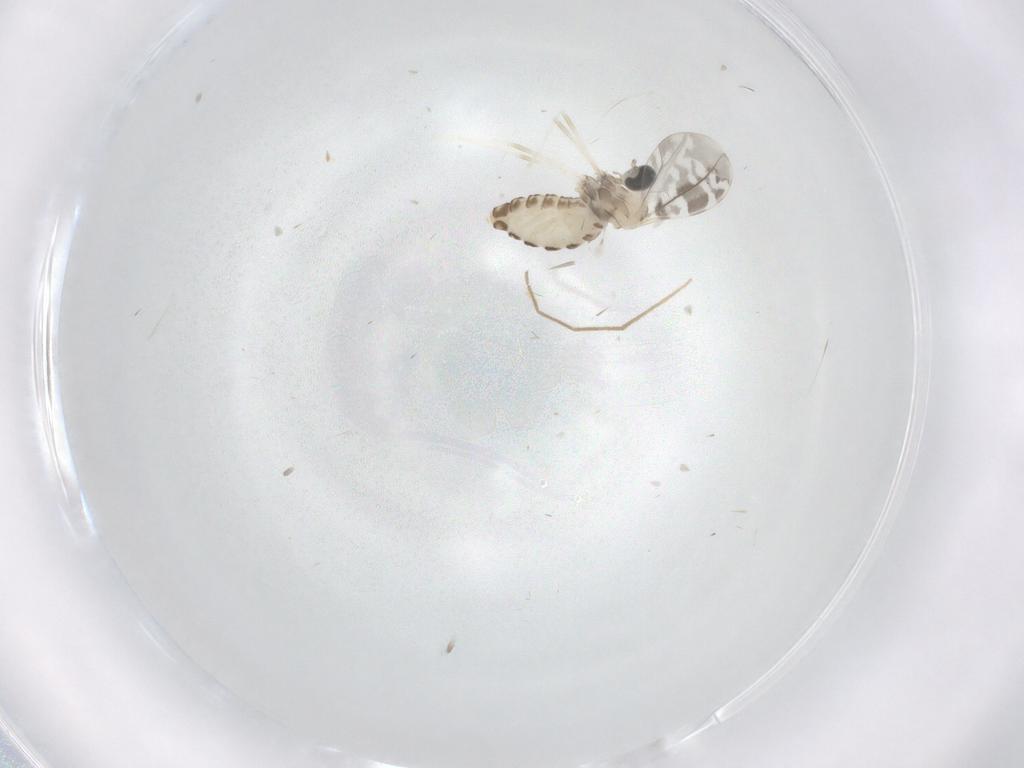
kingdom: Animalia
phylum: Arthropoda
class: Insecta
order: Diptera
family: Cecidomyiidae
